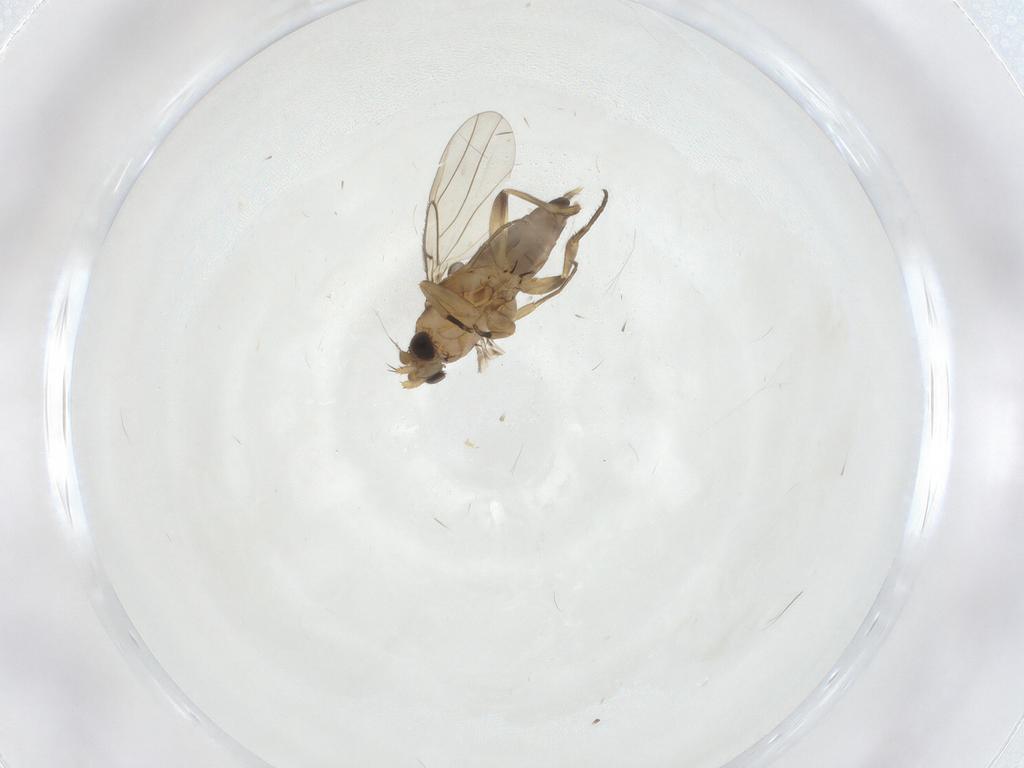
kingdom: Animalia
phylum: Arthropoda
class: Insecta
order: Diptera
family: Phoridae
